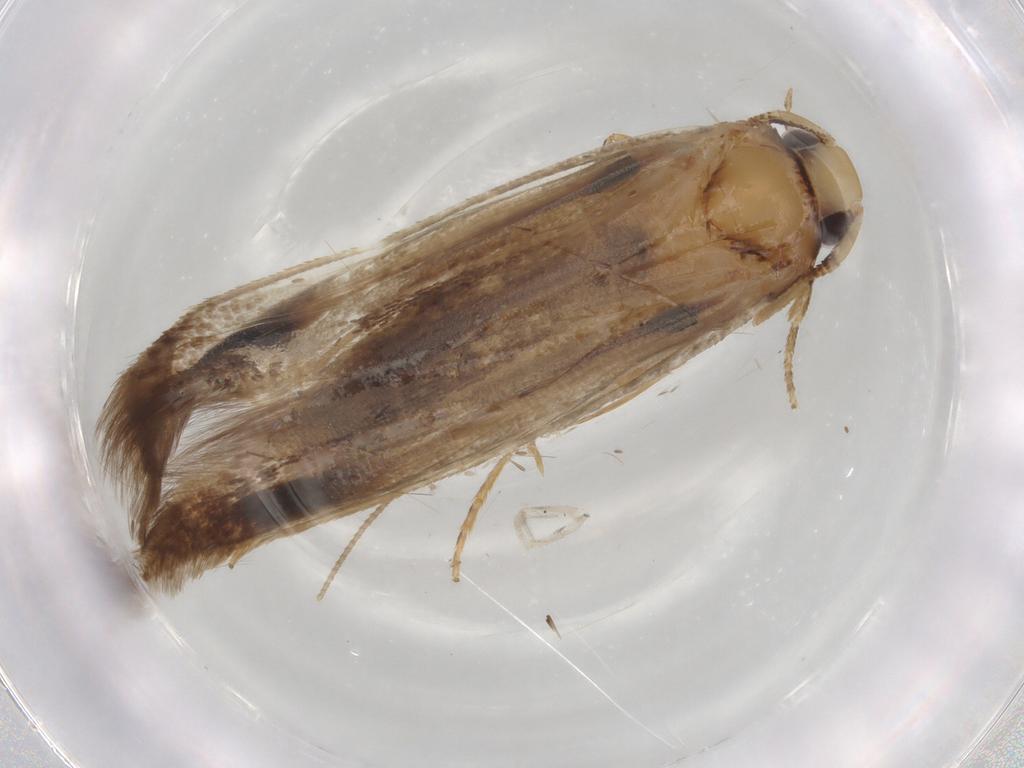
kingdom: Animalia
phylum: Arthropoda
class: Insecta
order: Lepidoptera
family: Tineidae
